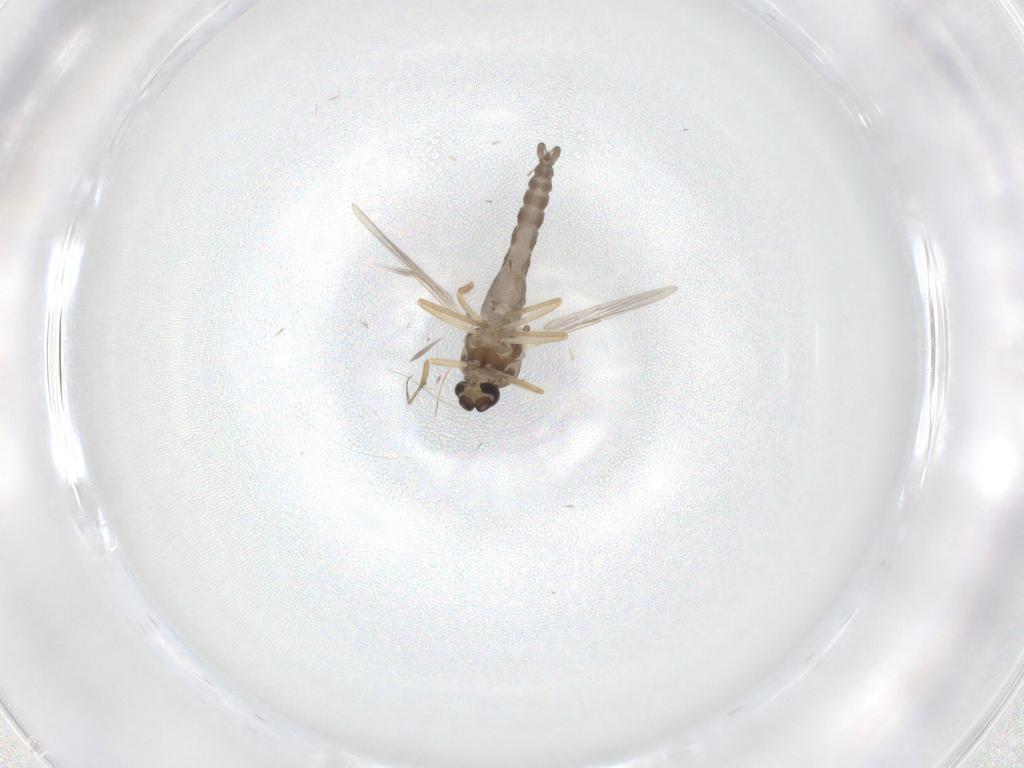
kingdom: Animalia
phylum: Arthropoda
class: Insecta
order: Diptera
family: Ceratopogonidae
